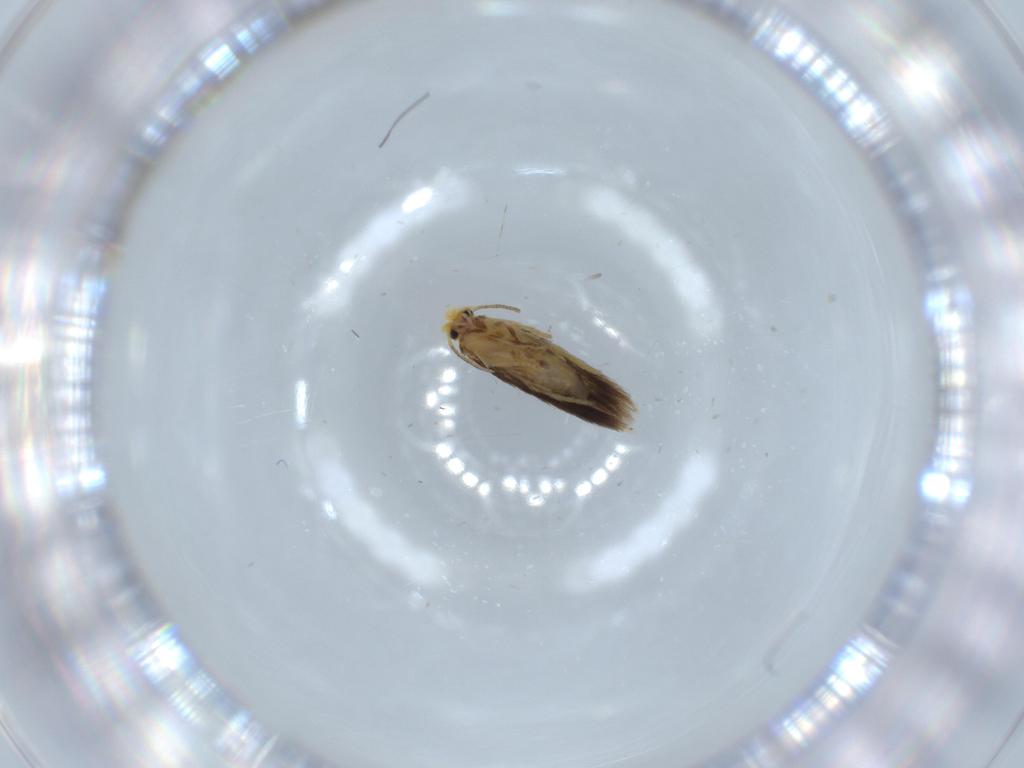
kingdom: Animalia
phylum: Arthropoda
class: Insecta
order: Lepidoptera
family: Nepticulidae
